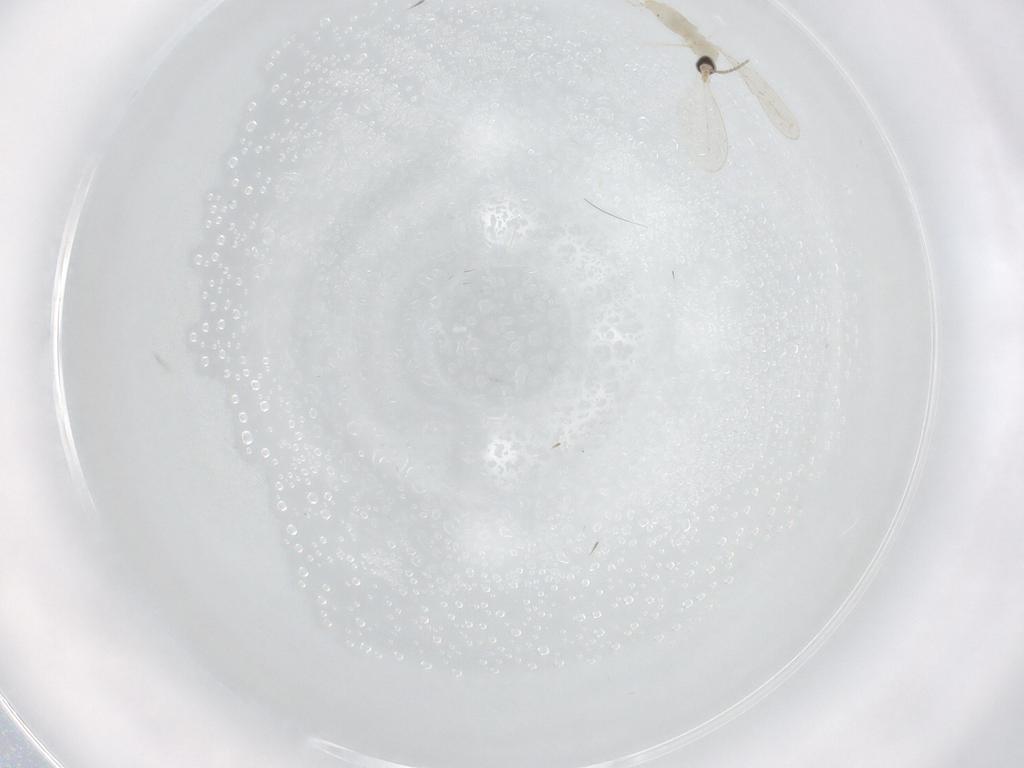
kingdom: Animalia
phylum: Arthropoda
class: Insecta
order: Diptera
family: Cecidomyiidae
